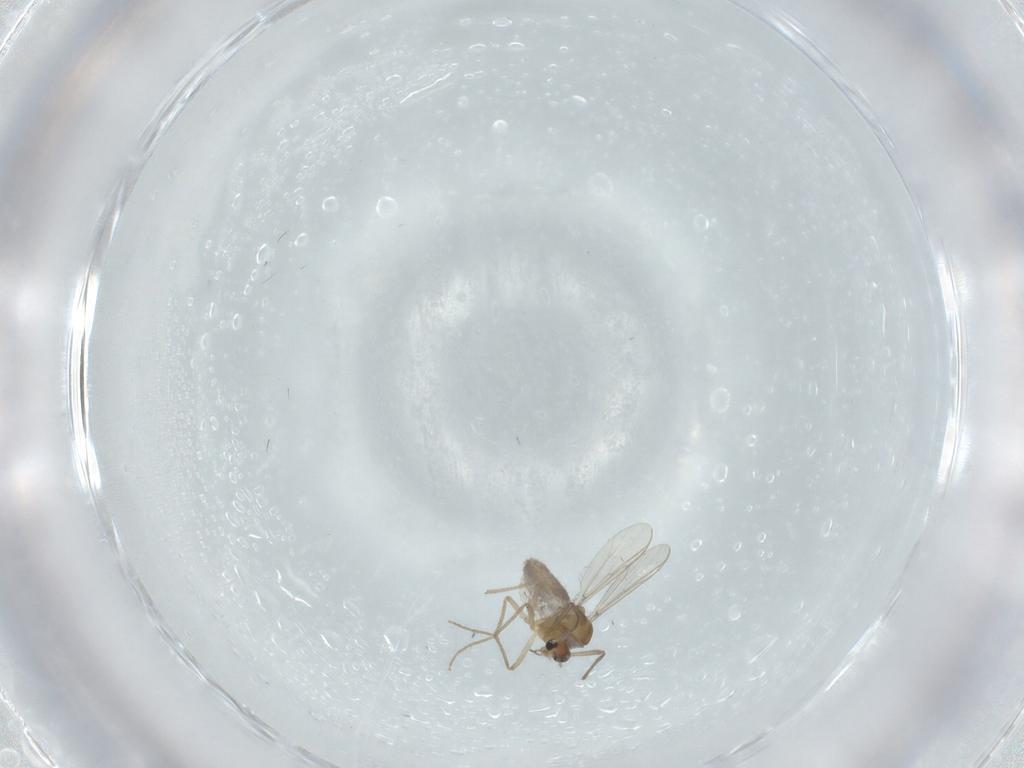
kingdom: Animalia
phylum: Arthropoda
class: Insecta
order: Diptera
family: Chironomidae
